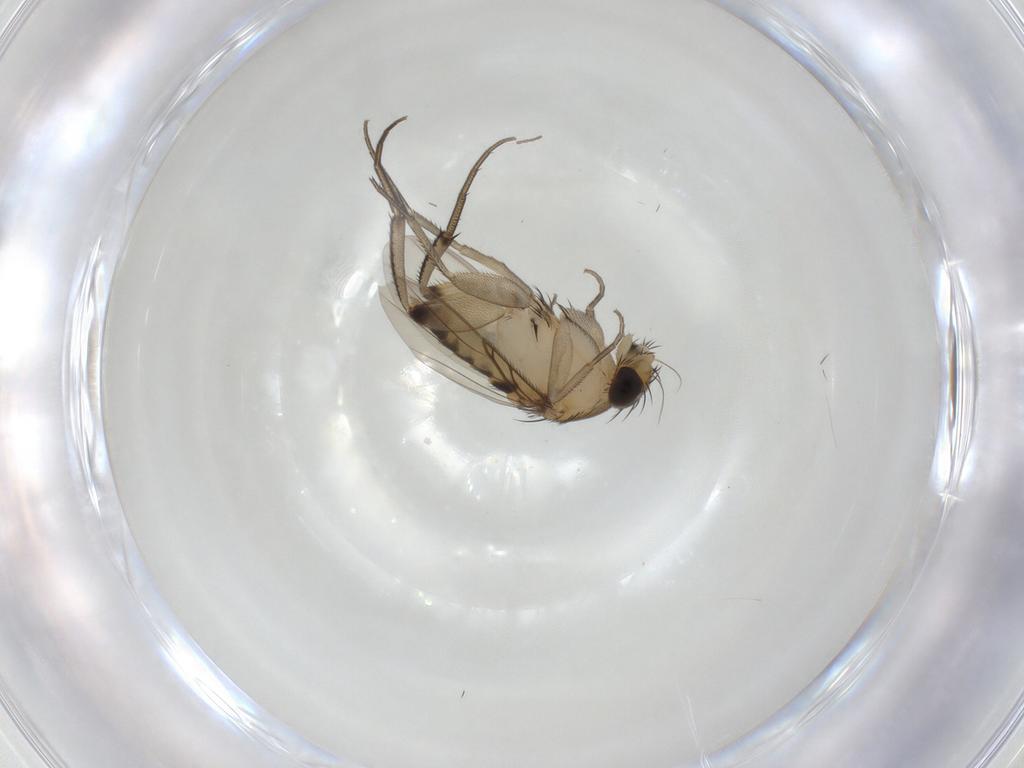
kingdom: Animalia
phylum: Arthropoda
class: Insecta
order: Diptera
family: Phoridae
